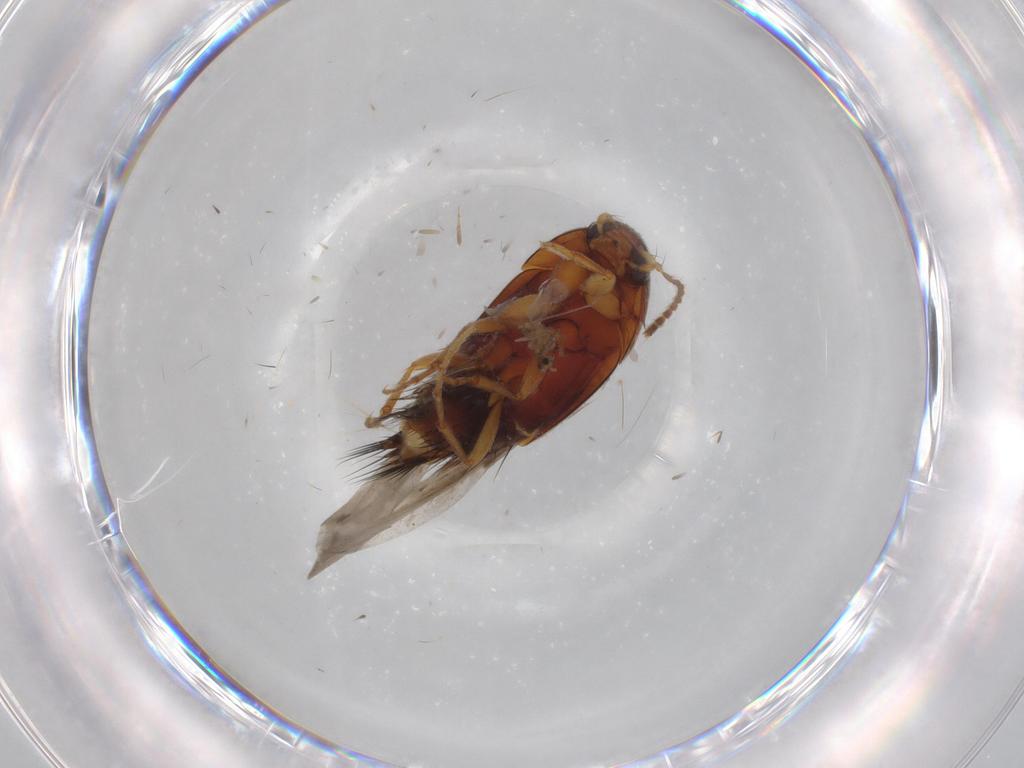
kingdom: Animalia
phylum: Arthropoda
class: Insecta
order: Coleoptera
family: Staphylinidae
